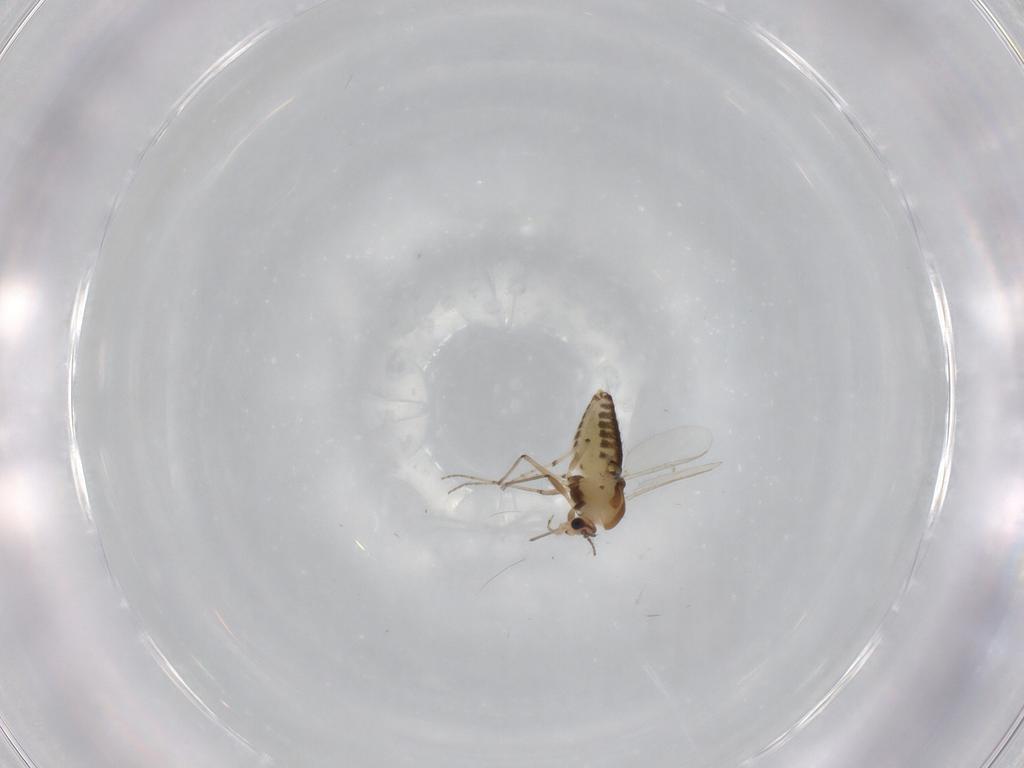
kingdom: Animalia
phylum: Arthropoda
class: Insecta
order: Diptera
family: Chironomidae
